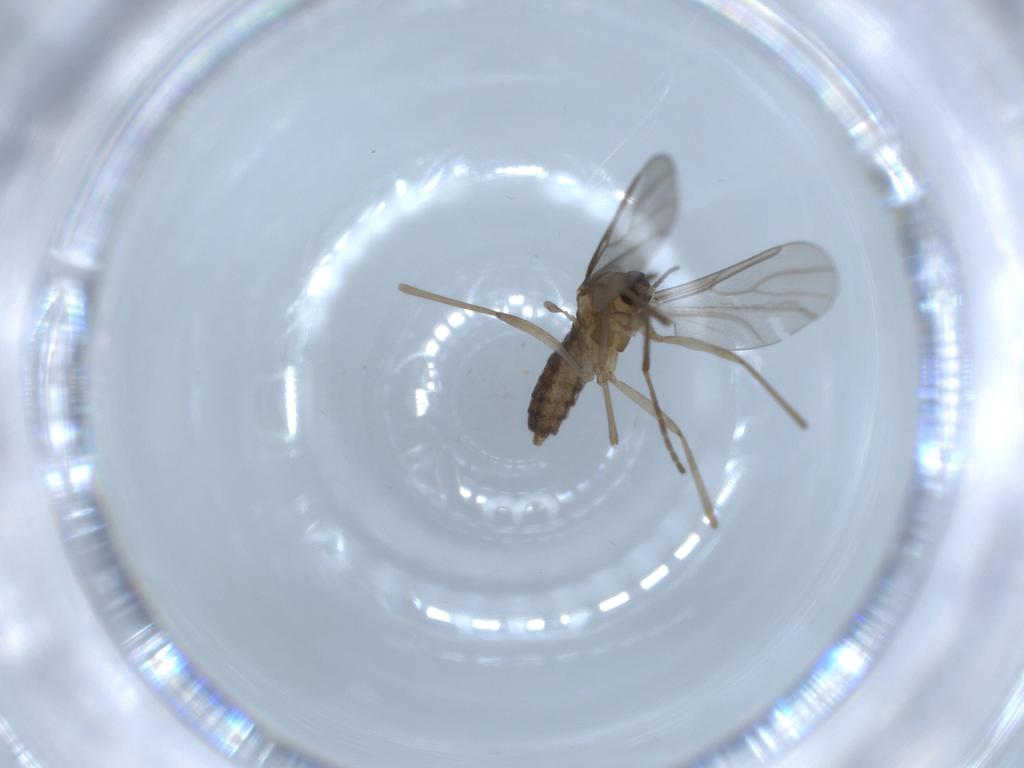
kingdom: Animalia
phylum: Arthropoda
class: Insecta
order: Diptera
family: Cecidomyiidae
